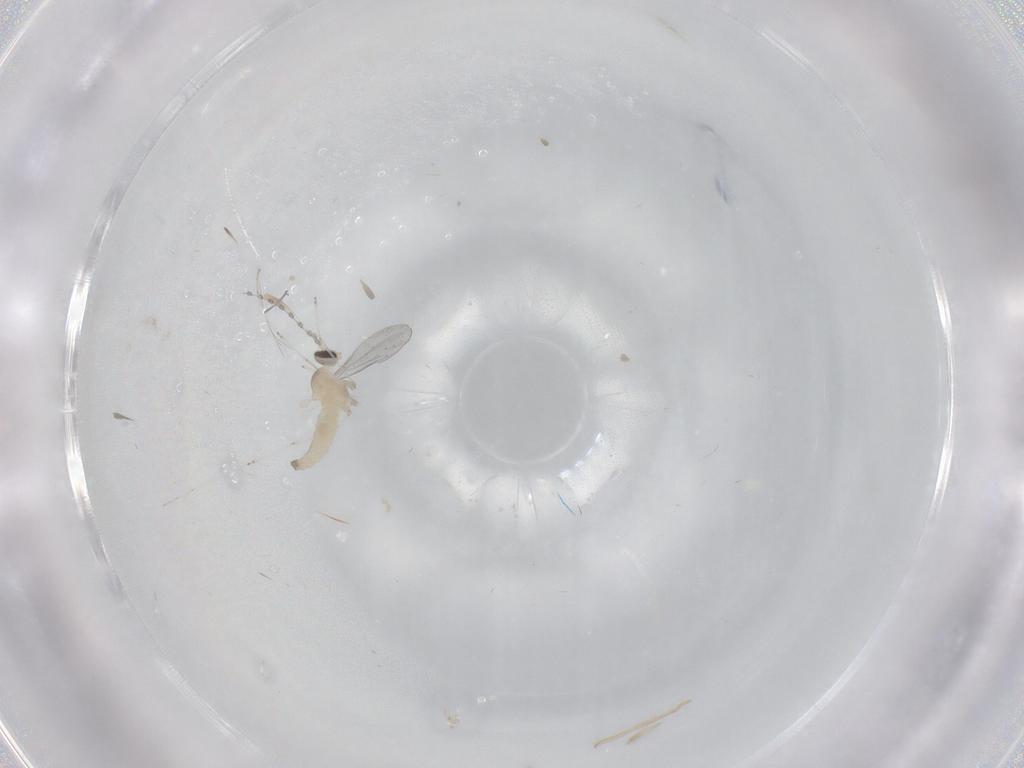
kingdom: Animalia
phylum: Arthropoda
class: Insecta
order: Diptera
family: Cecidomyiidae
